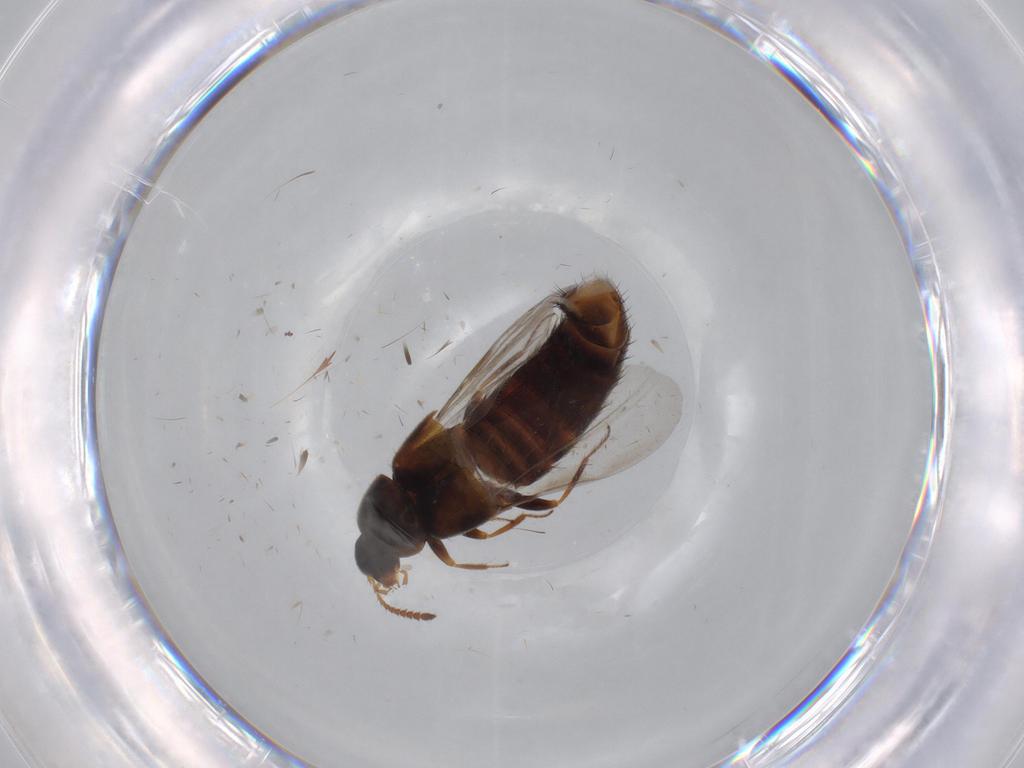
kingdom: Animalia
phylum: Arthropoda
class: Insecta
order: Coleoptera
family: Staphylinidae
